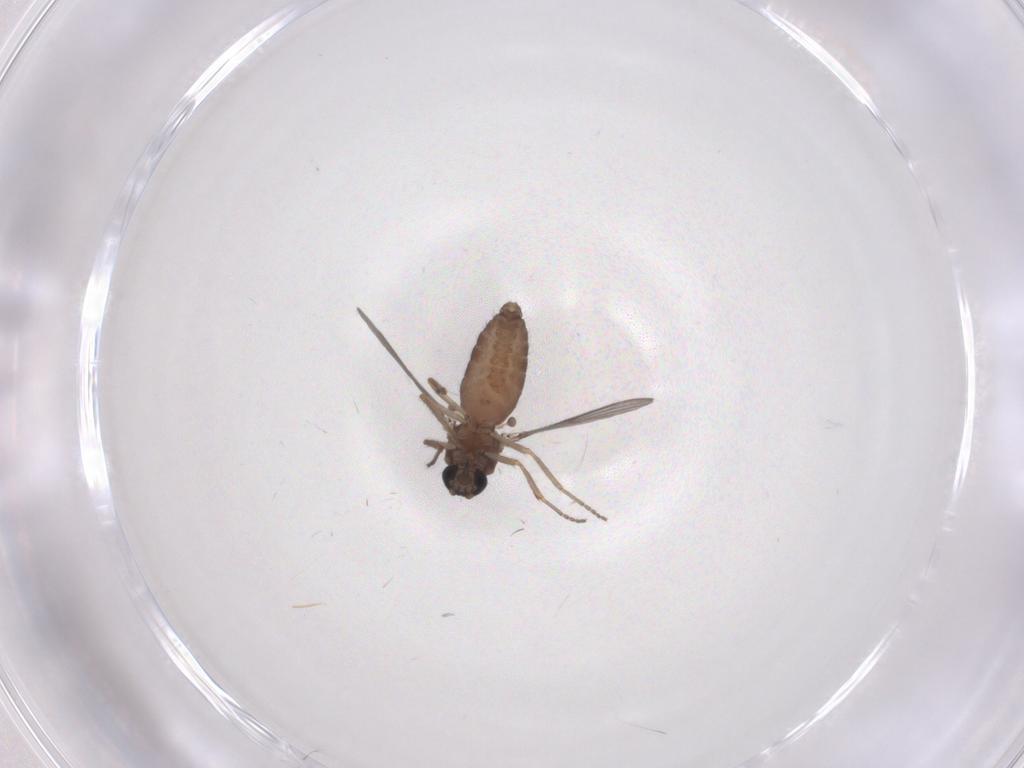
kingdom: Animalia
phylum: Arthropoda
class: Insecta
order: Diptera
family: Ceratopogonidae
